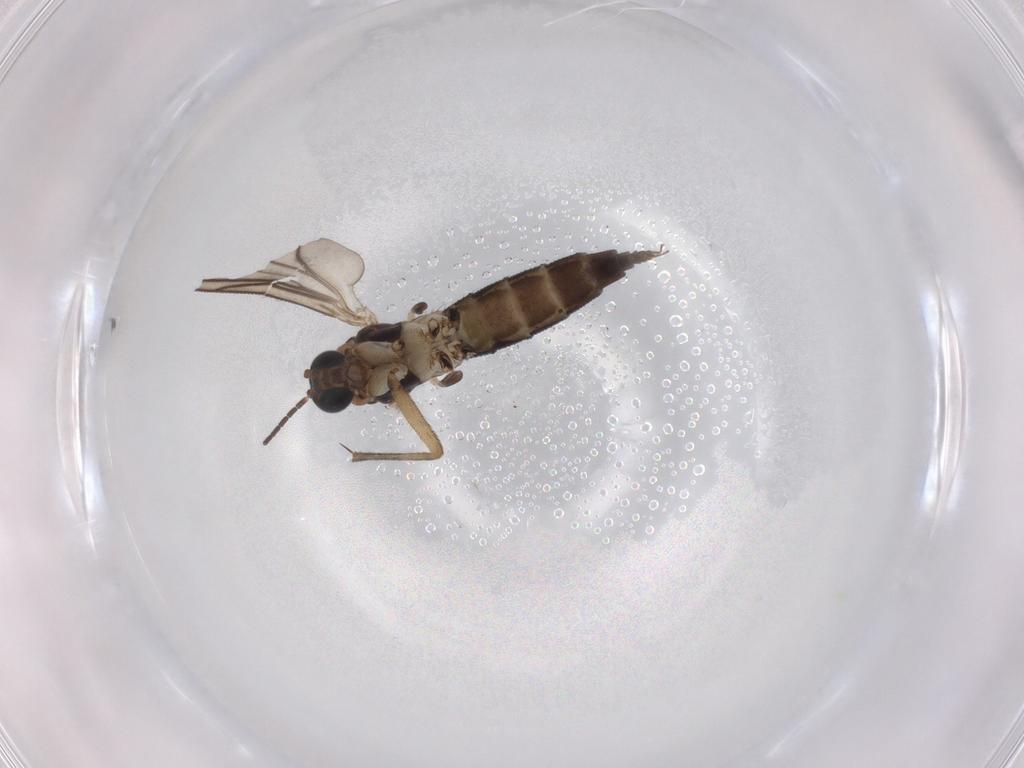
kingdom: Animalia
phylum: Arthropoda
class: Insecta
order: Diptera
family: Sciaridae
